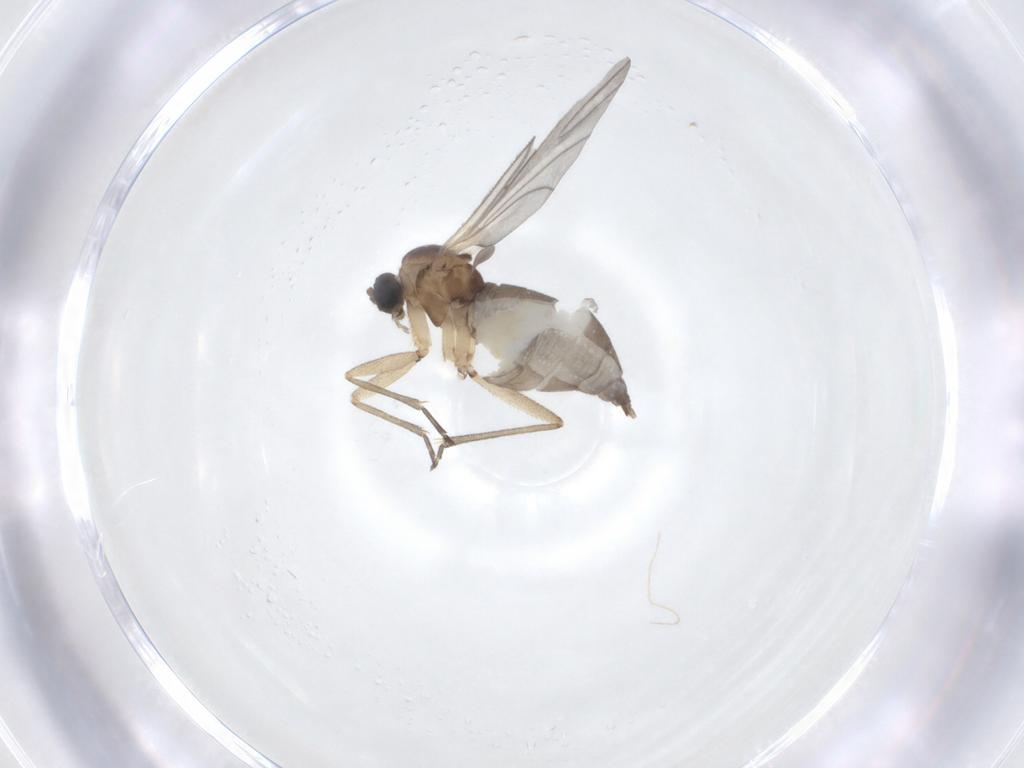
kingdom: Animalia
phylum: Arthropoda
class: Insecta
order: Diptera
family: Sciaridae
